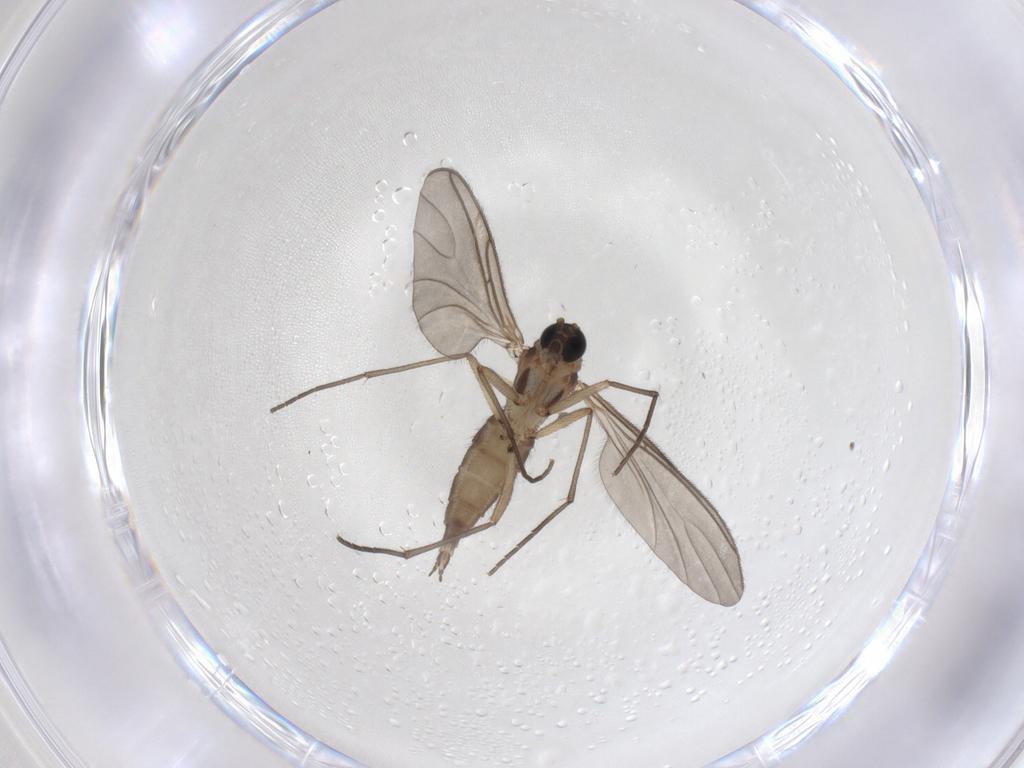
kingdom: Animalia
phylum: Arthropoda
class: Insecta
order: Diptera
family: Sciaridae
